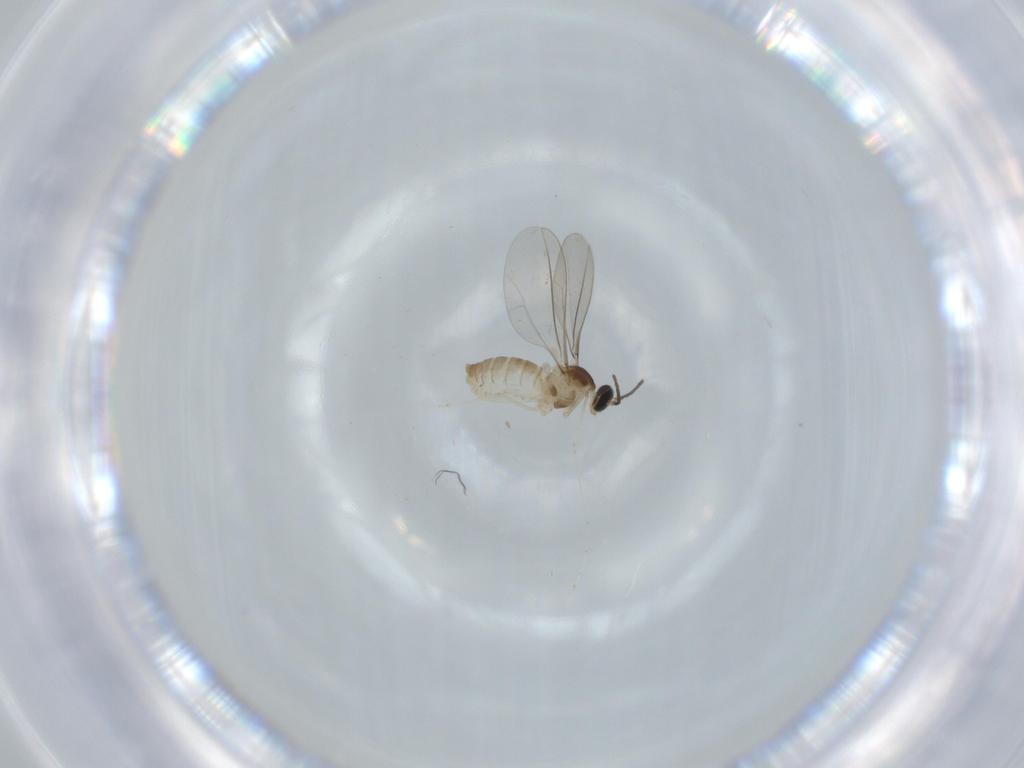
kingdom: Animalia
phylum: Arthropoda
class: Insecta
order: Diptera
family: Cecidomyiidae
